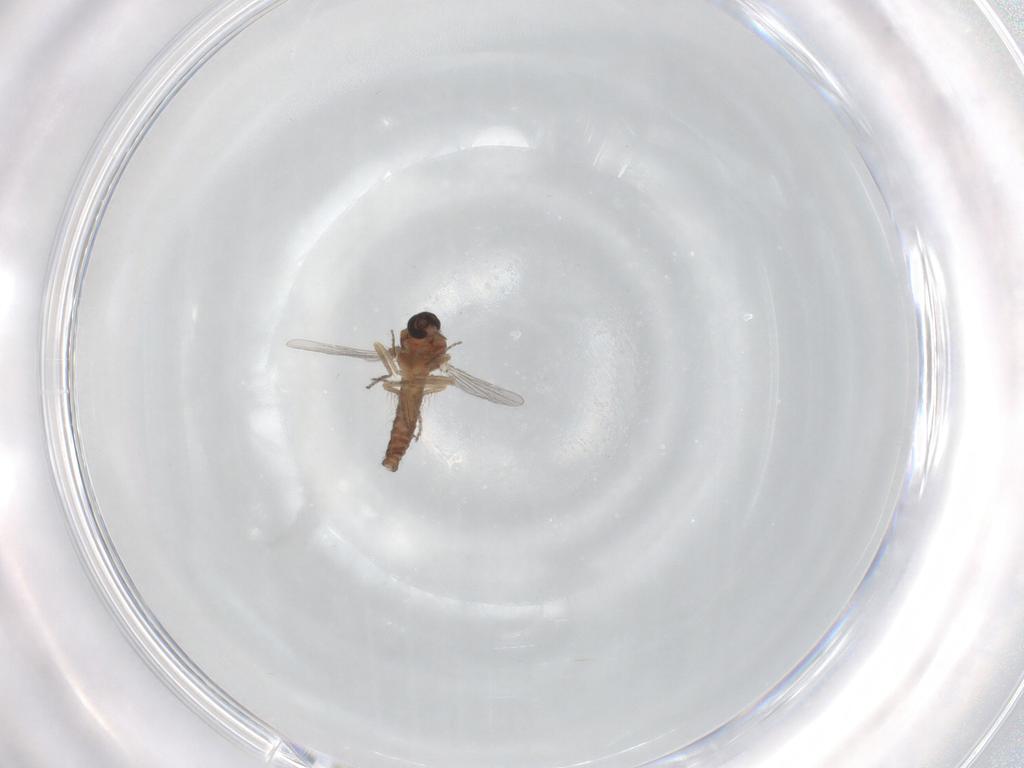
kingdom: Animalia
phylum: Arthropoda
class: Insecta
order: Diptera
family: Ceratopogonidae
